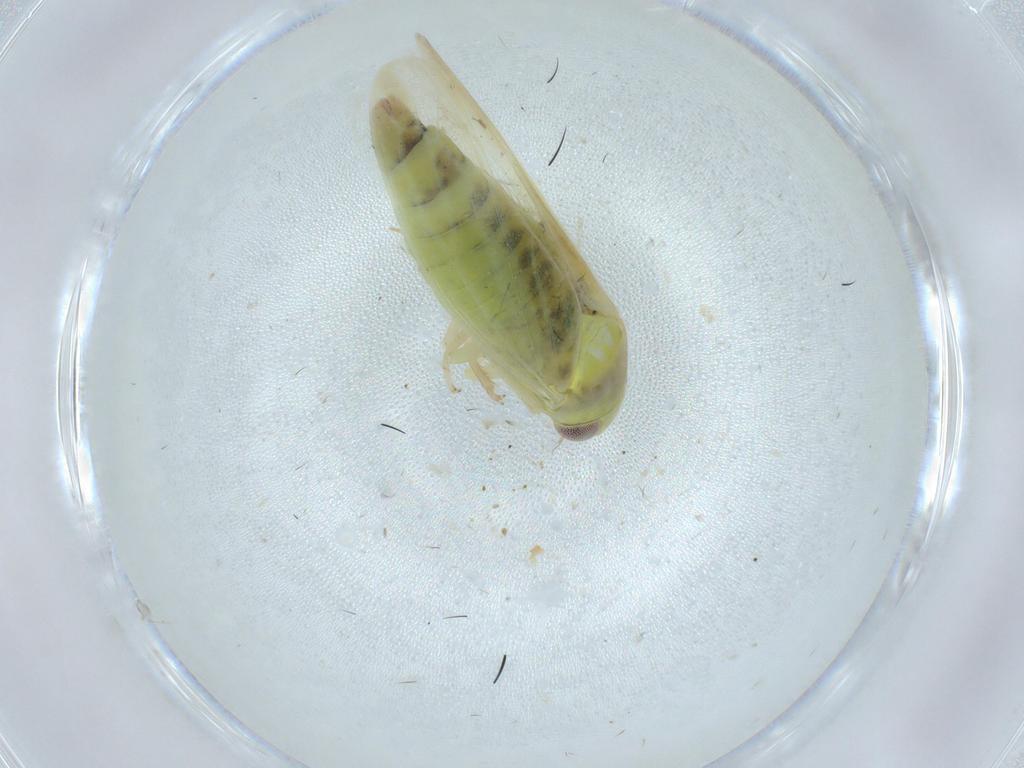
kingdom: Animalia
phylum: Arthropoda
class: Insecta
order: Hemiptera
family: Cicadellidae
